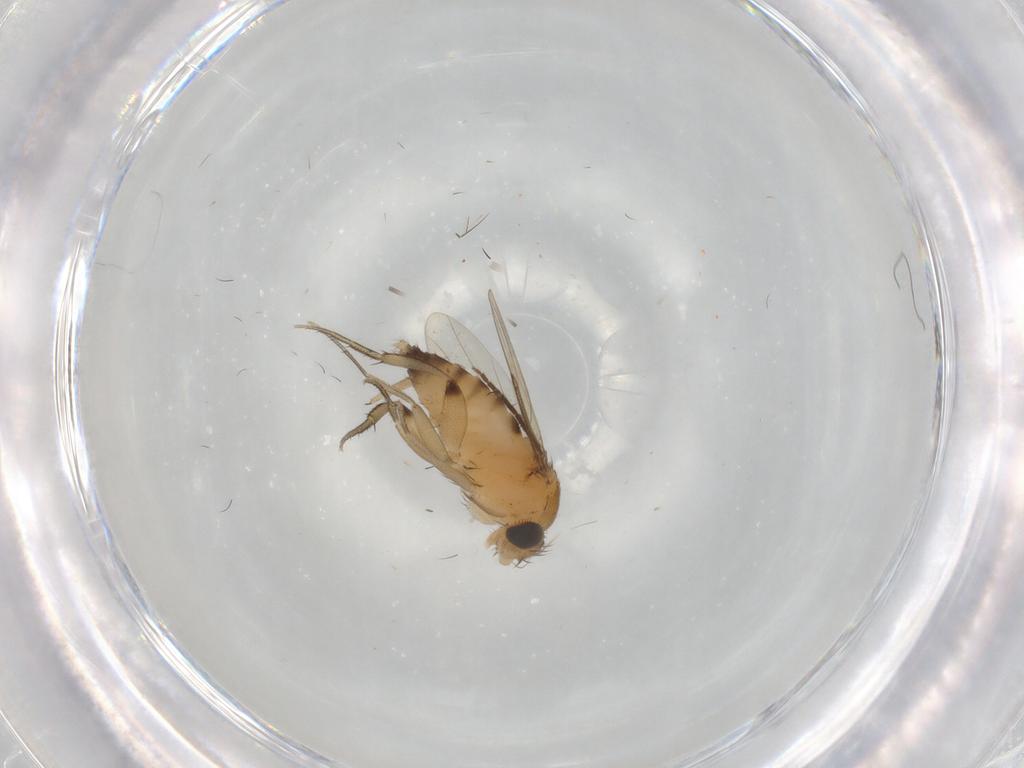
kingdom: Animalia
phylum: Arthropoda
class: Insecta
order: Diptera
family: Chironomidae
